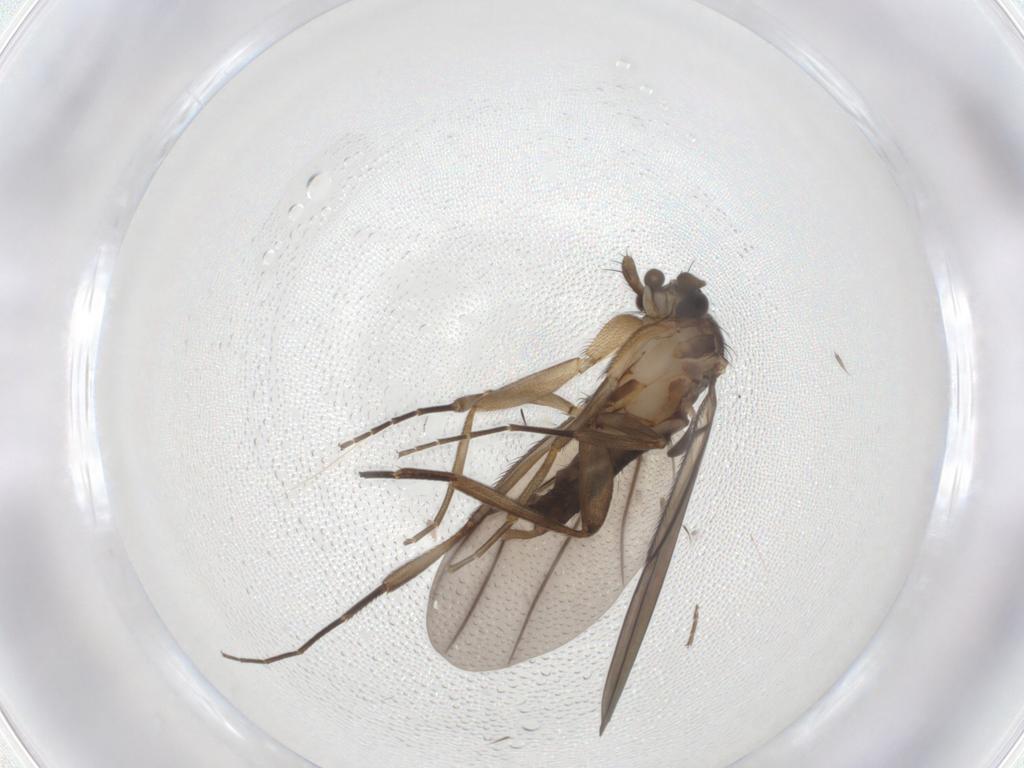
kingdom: Animalia
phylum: Arthropoda
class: Insecta
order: Diptera
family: Phoridae
